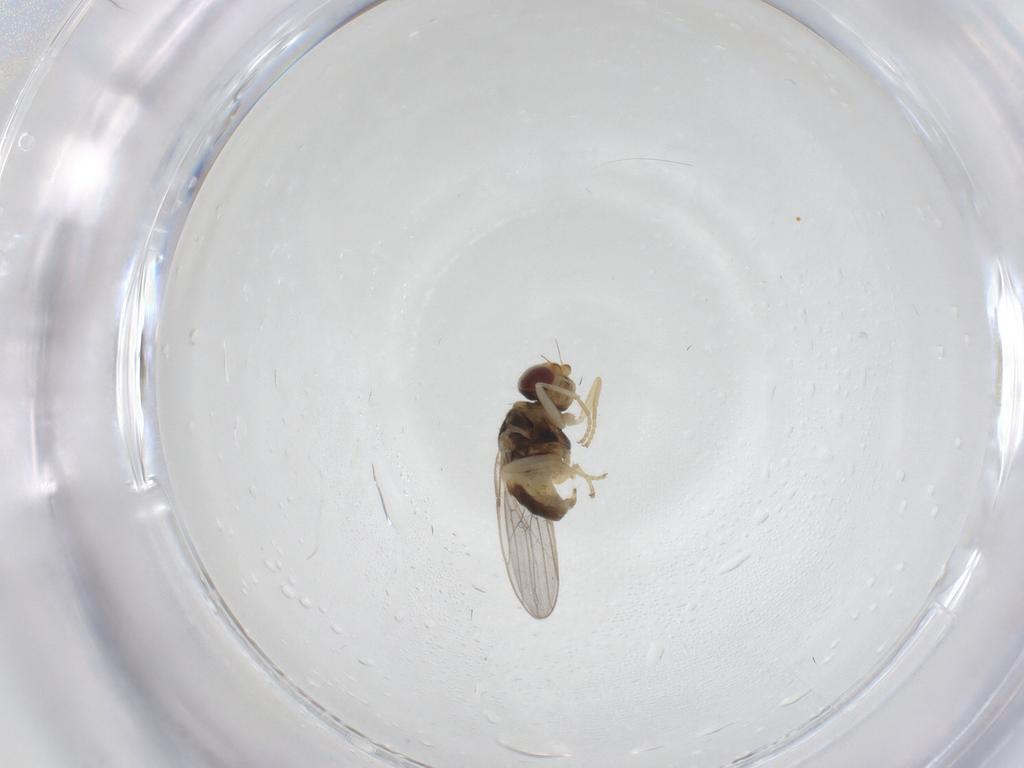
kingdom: Animalia
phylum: Arthropoda
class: Insecta
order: Diptera
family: Chloropidae
